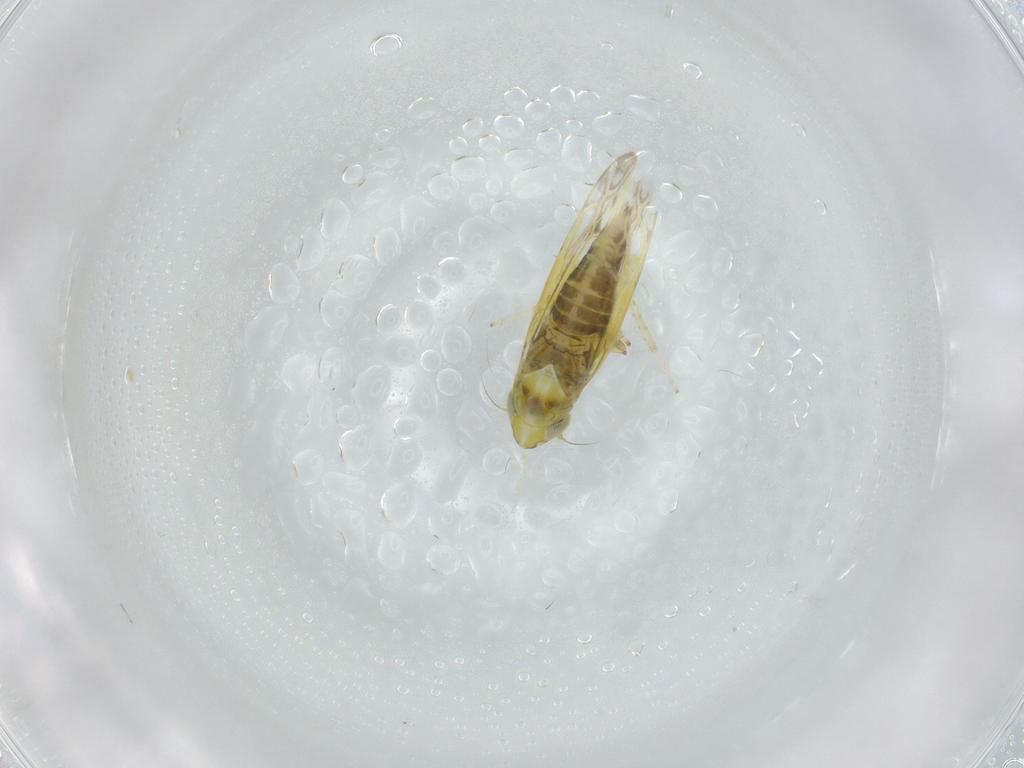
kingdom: Animalia
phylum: Arthropoda
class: Insecta
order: Hemiptera
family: Cicadellidae
